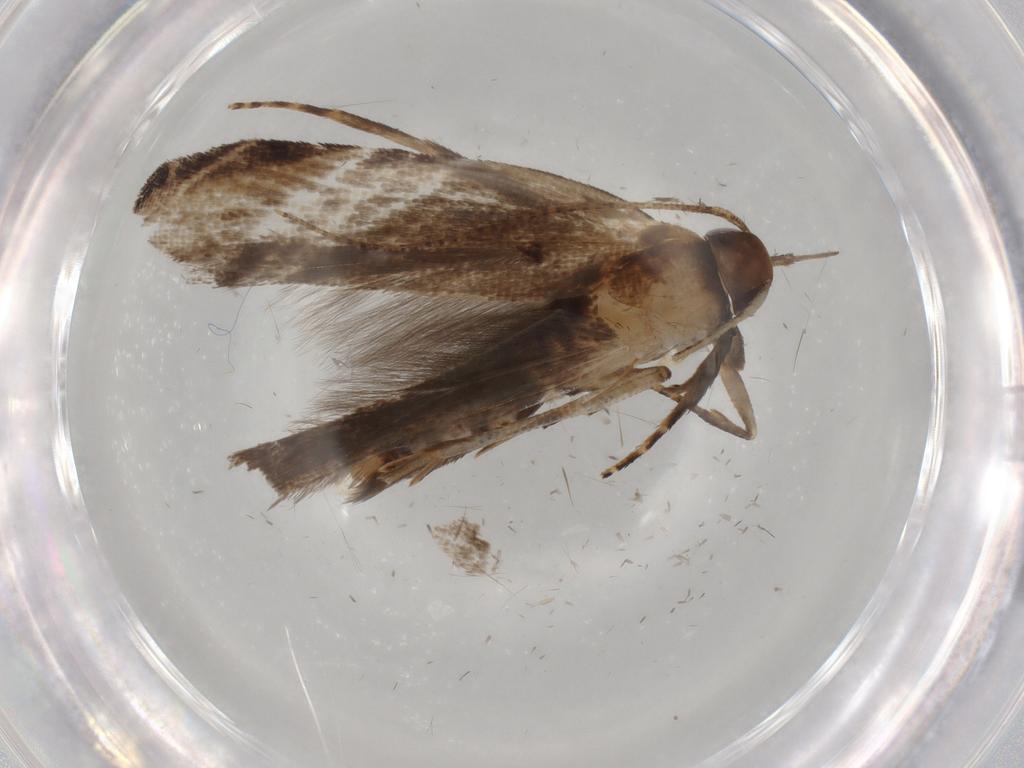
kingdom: Animalia
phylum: Arthropoda
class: Insecta
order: Lepidoptera
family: Gelechiidae
